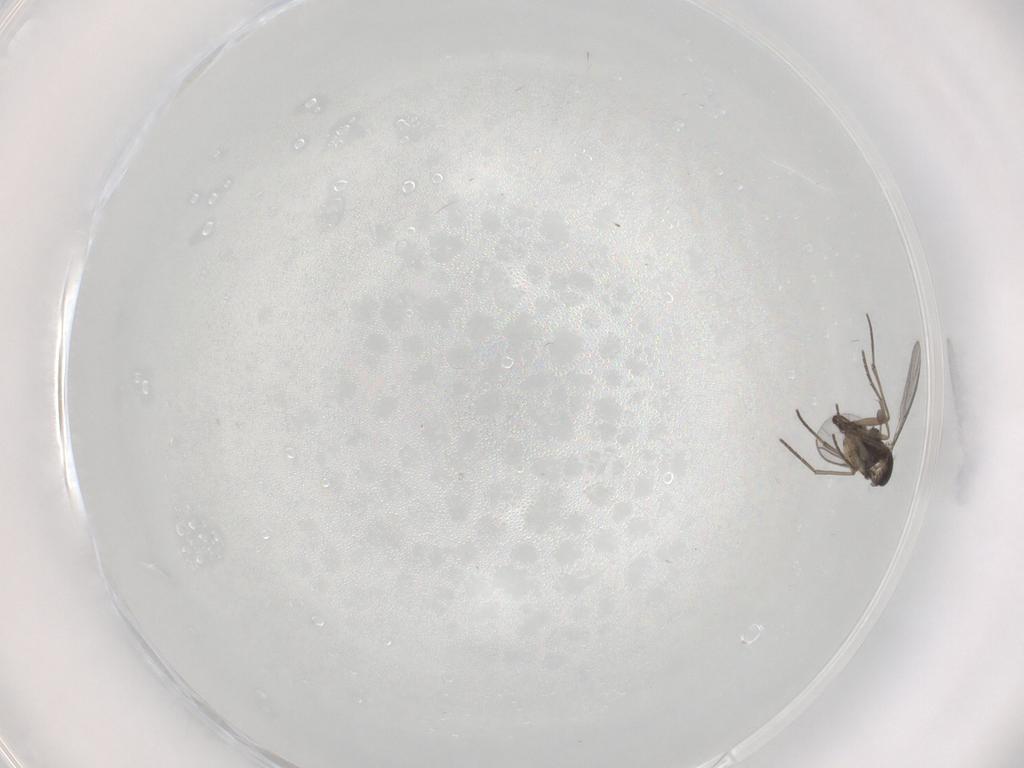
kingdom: Animalia
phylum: Arthropoda
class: Insecta
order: Diptera
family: Sciaridae
